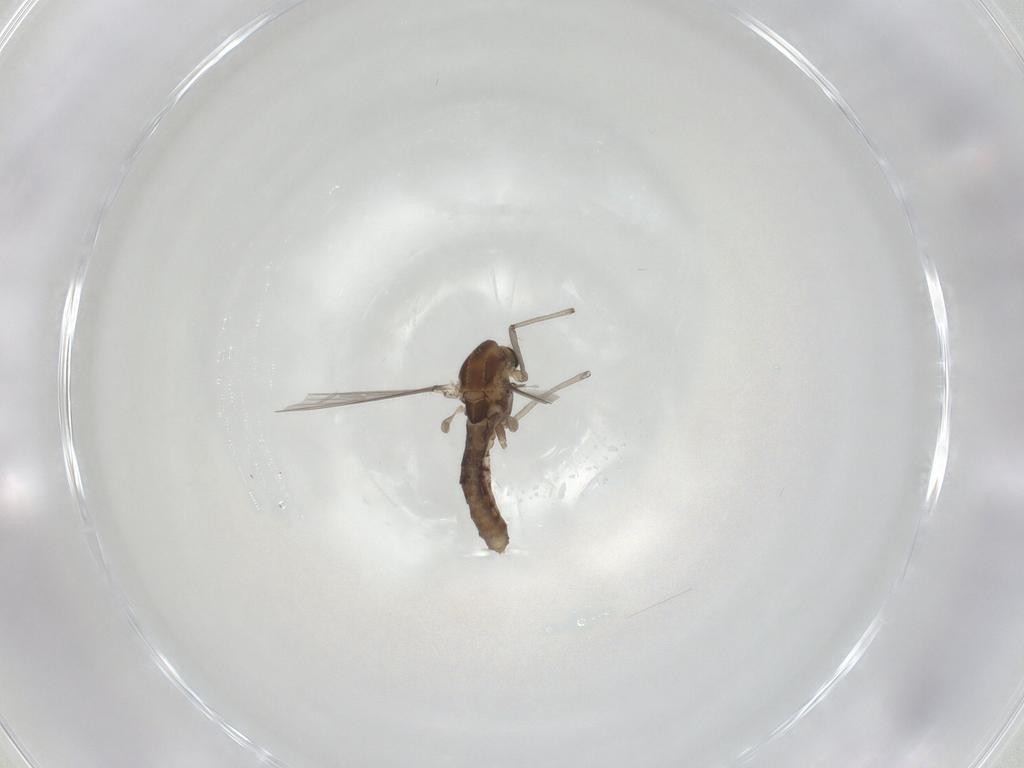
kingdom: Animalia
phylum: Arthropoda
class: Insecta
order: Diptera
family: Chironomidae
